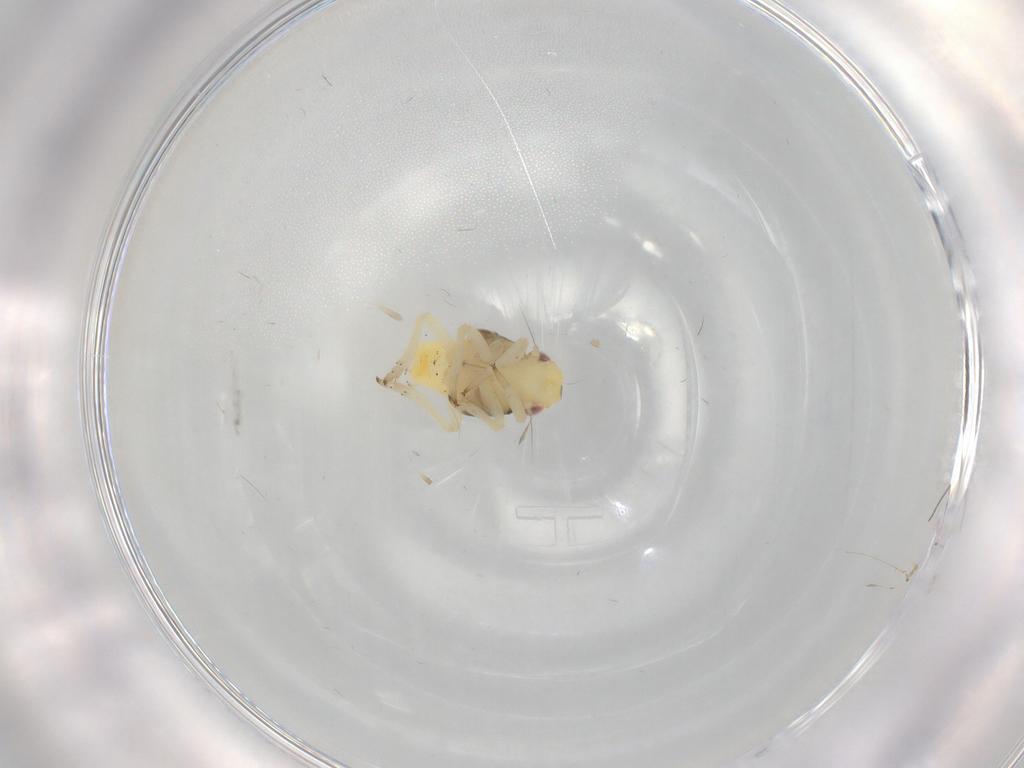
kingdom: Animalia
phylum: Arthropoda
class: Insecta
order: Hemiptera
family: Caliscelidae
